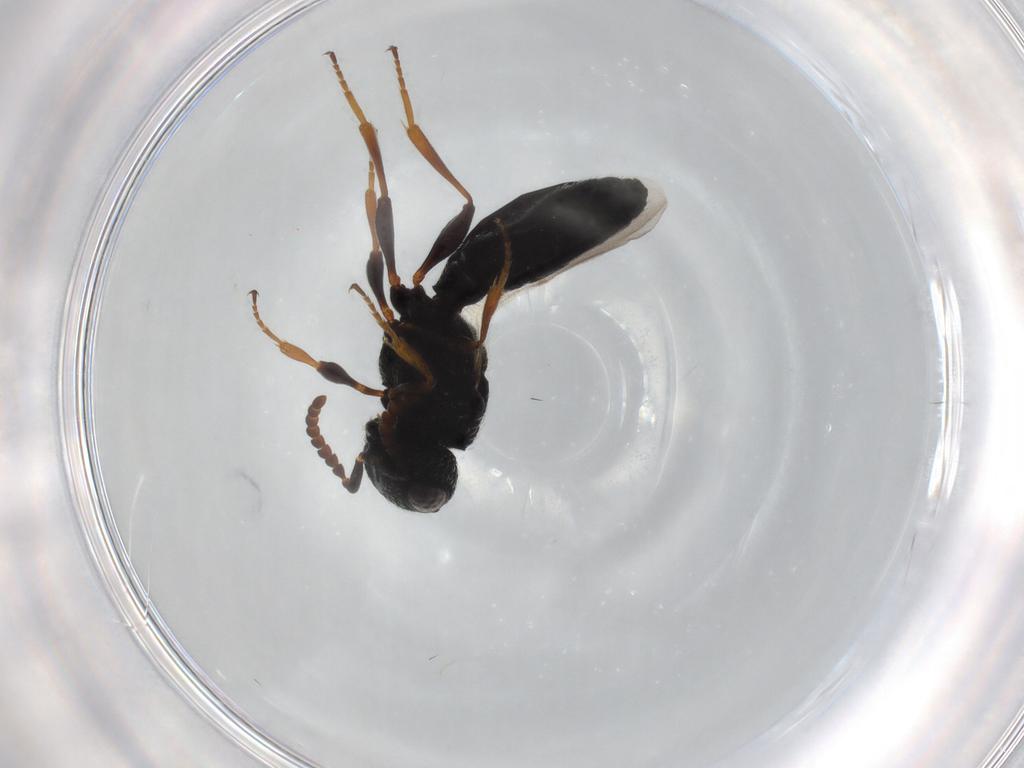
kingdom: Animalia
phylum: Arthropoda
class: Insecta
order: Hymenoptera
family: Scelionidae
